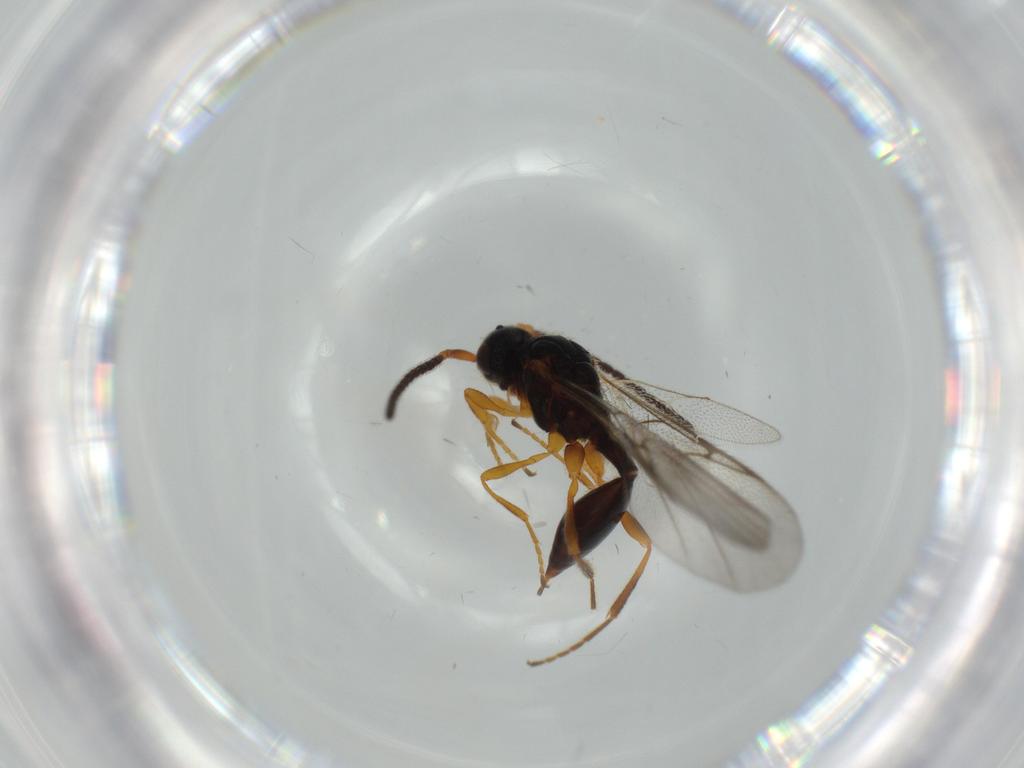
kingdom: Animalia
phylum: Arthropoda
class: Insecta
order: Hymenoptera
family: Diapriidae
